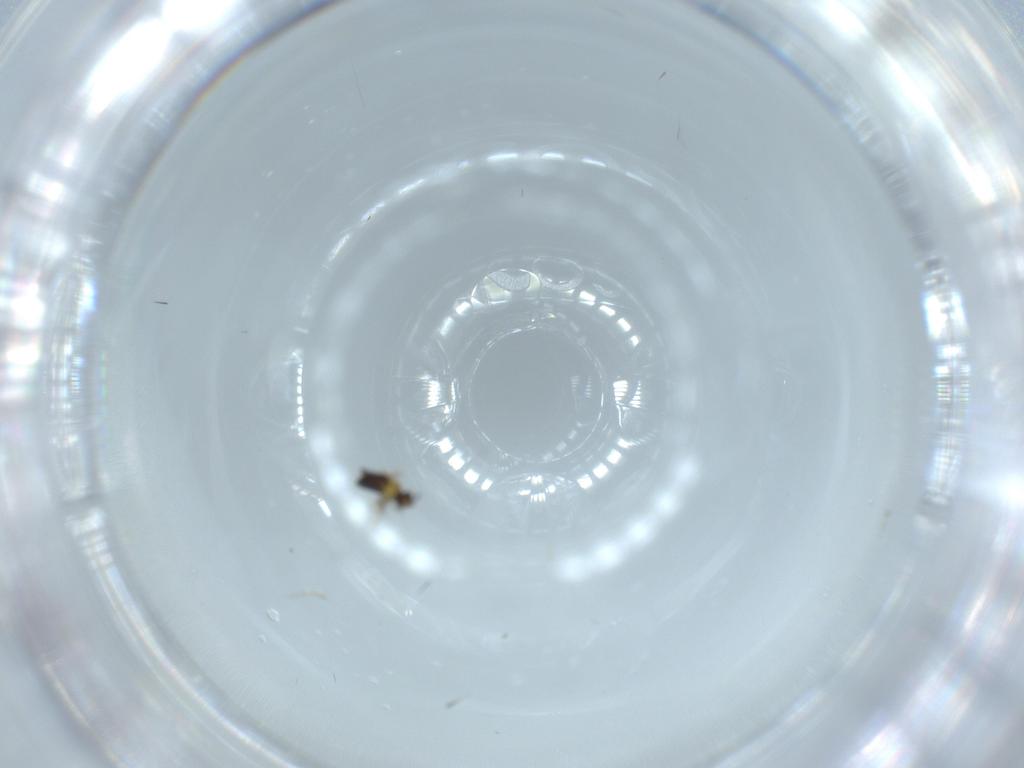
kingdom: Animalia
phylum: Arthropoda
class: Insecta
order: Hymenoptera
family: Signiphoridae
